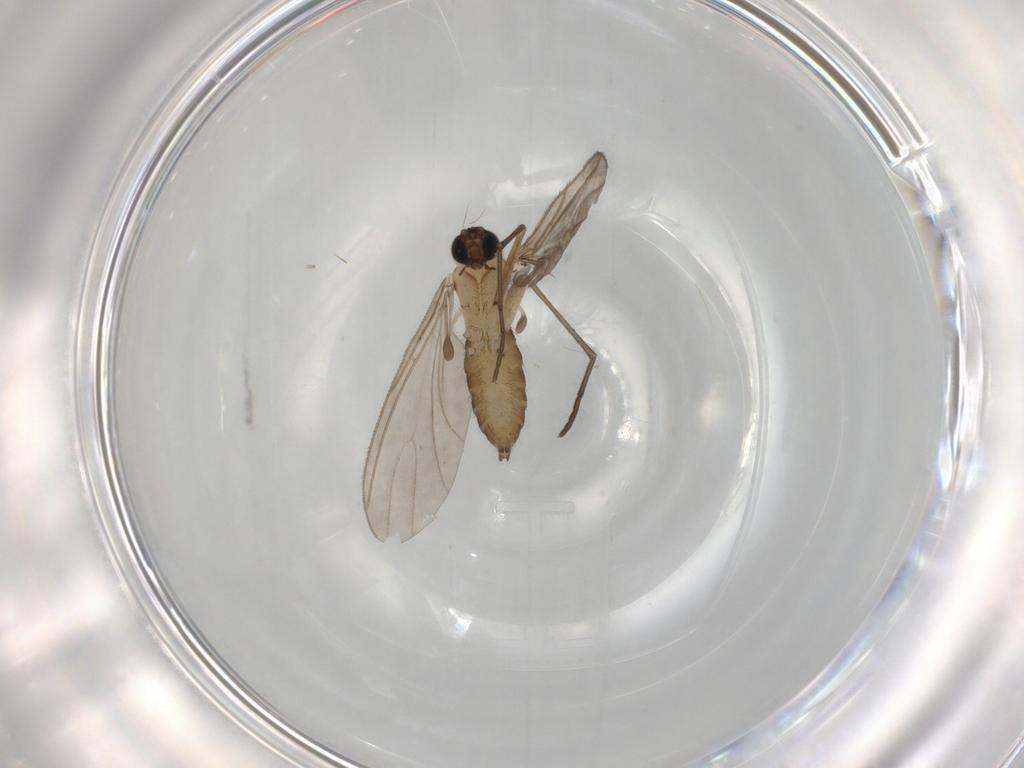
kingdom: Animalia
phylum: Arthropoda
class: Insecta
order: Diptera
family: Sciaridae
